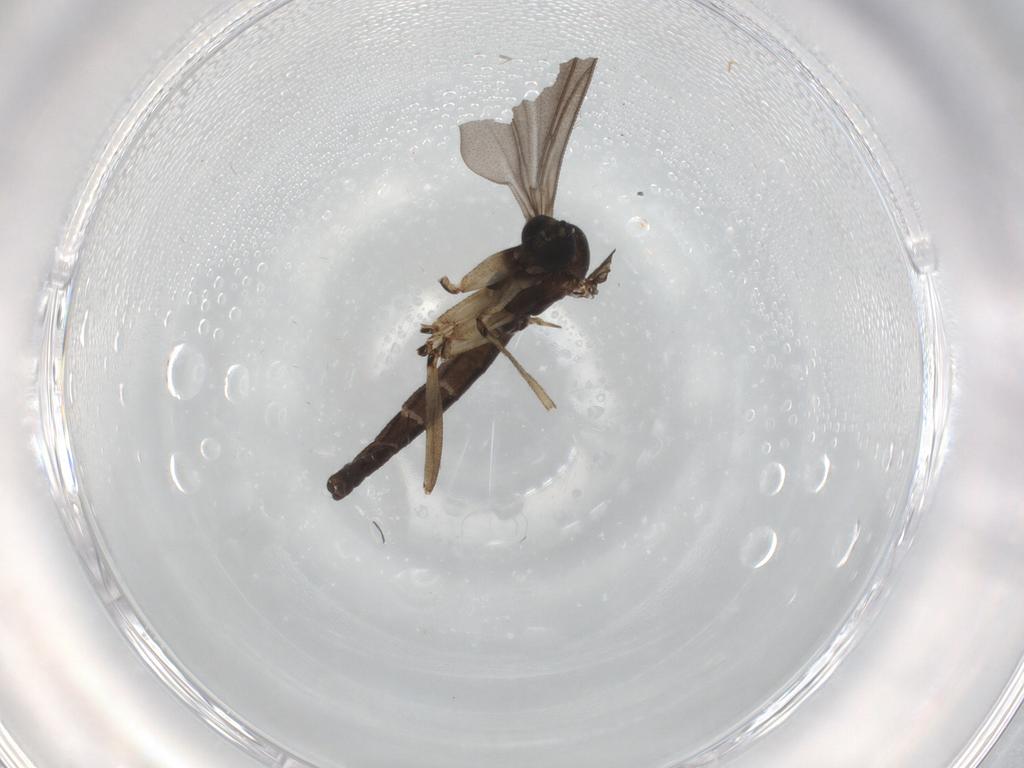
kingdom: Animalia
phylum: Arthropoda
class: Insecta
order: Diptera
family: Sciaridae
